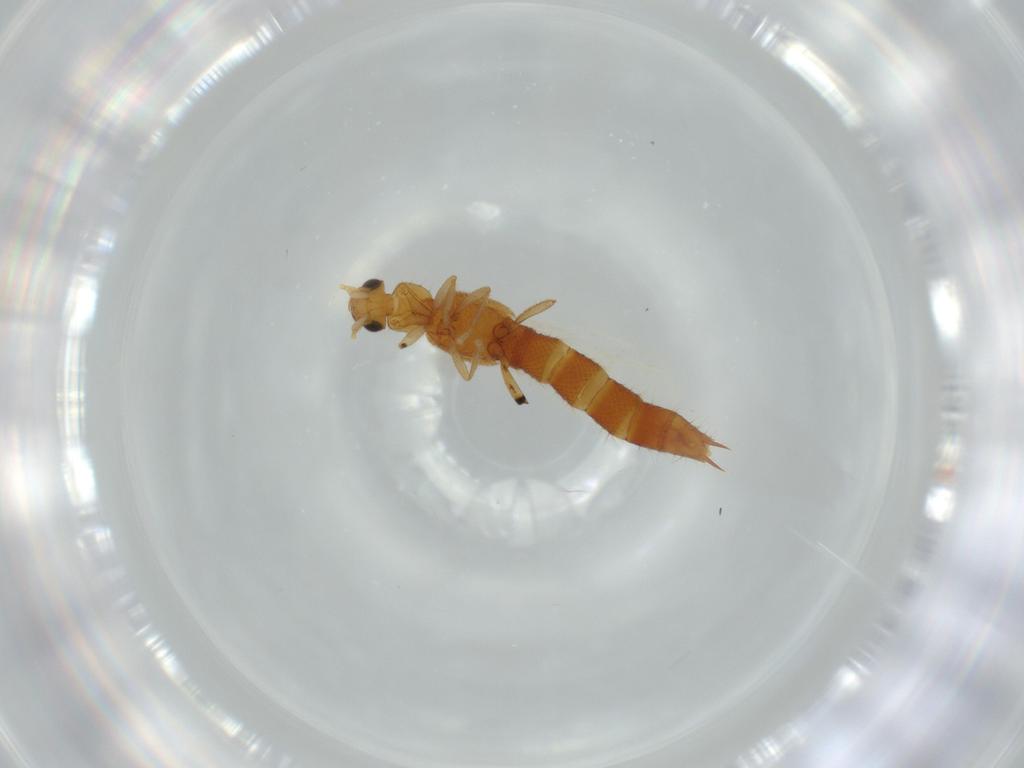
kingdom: Animalia
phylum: Arthropoda
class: Insecta
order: Coleoptera
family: Staphylinidae
